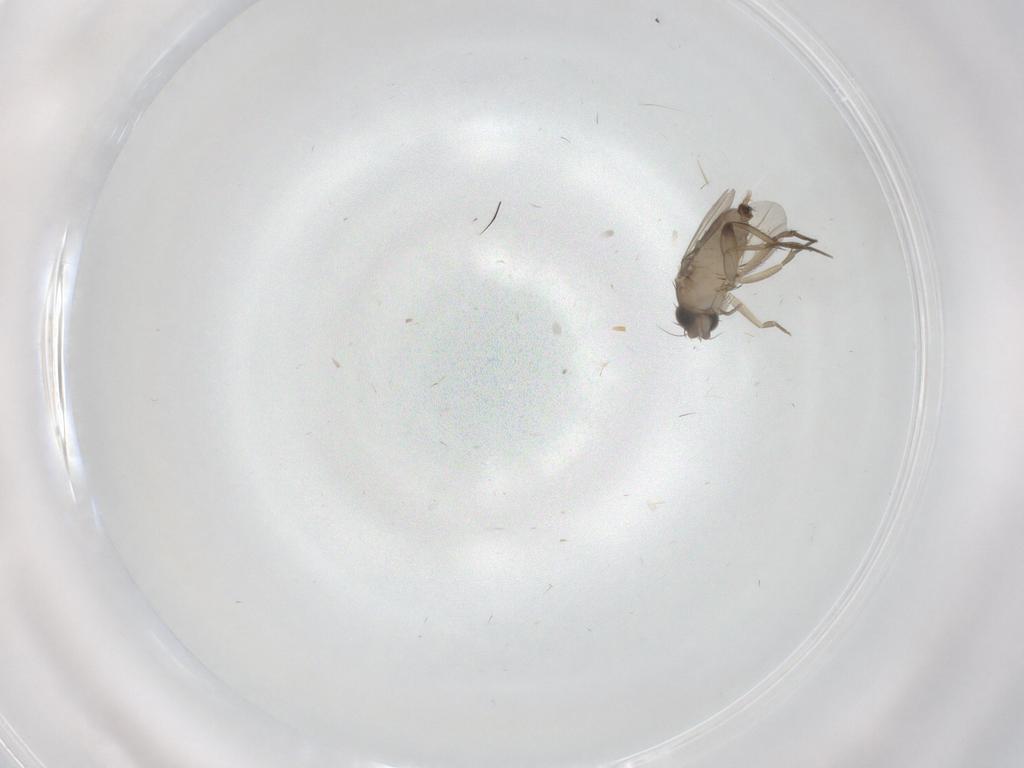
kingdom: Animalia
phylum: Arthropoda
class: Insecta
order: Diptera
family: Phoridae
